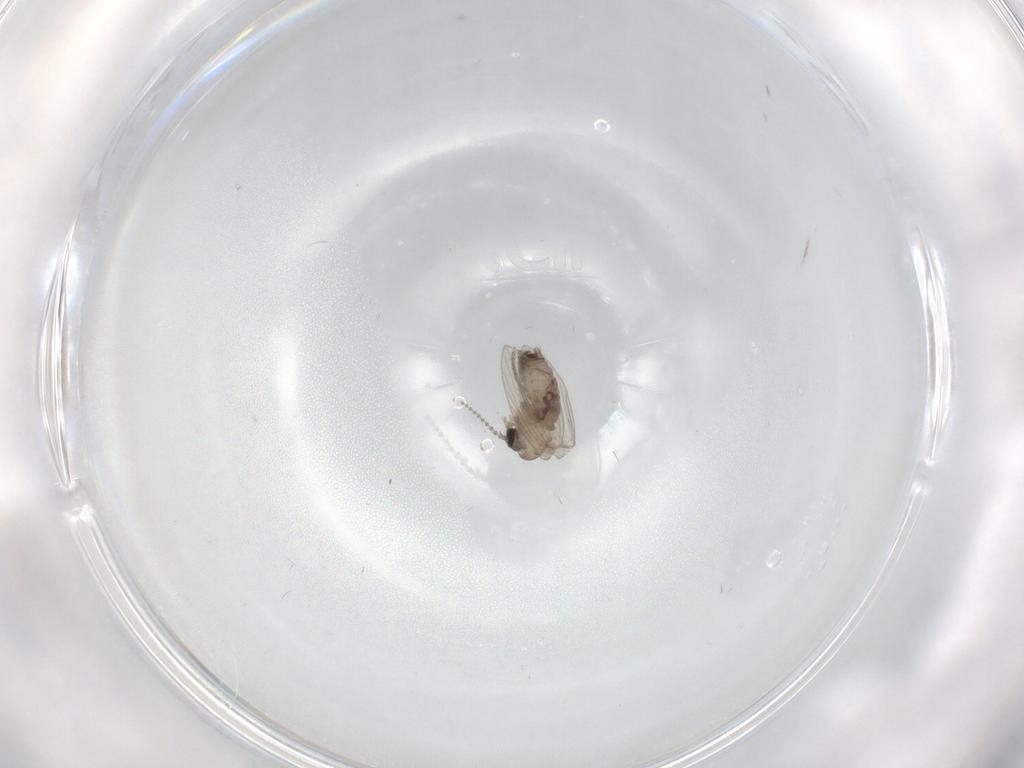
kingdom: Animalia
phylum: Arthropoda
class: Insecta
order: Diptera
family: Psychodidae
